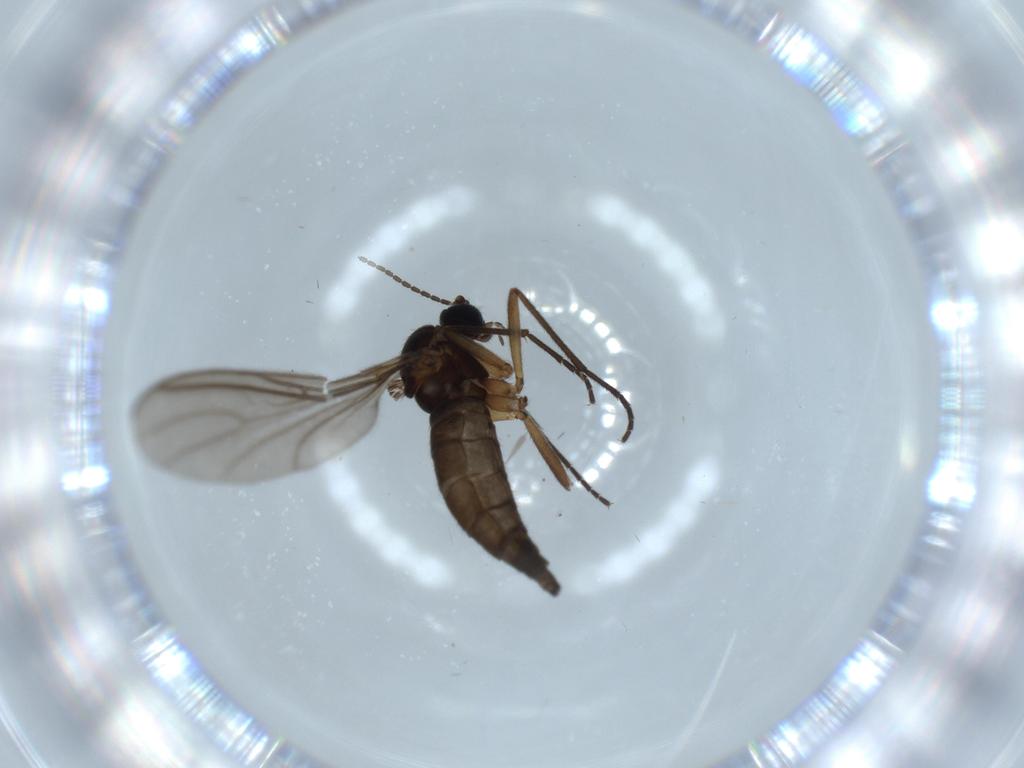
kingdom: Animalia
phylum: Arthropoda
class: Insecta
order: Diptera
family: Sciaridae
